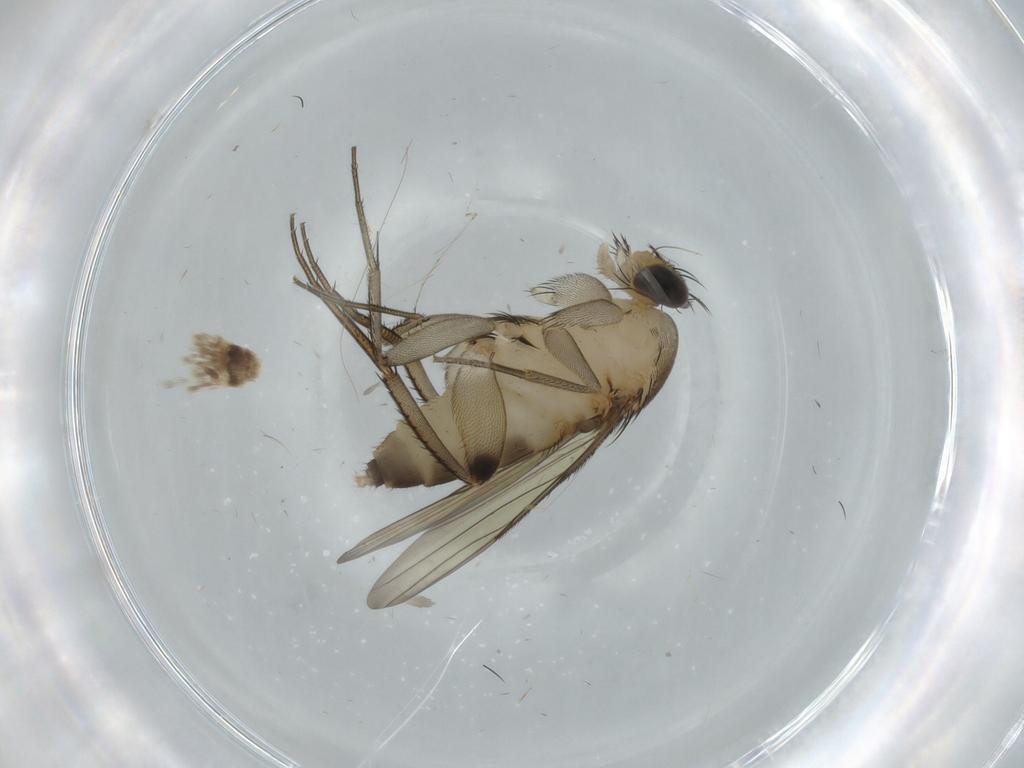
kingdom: Animalia
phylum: Arthropoda
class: Insecta
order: Diptera
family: Phoridae
